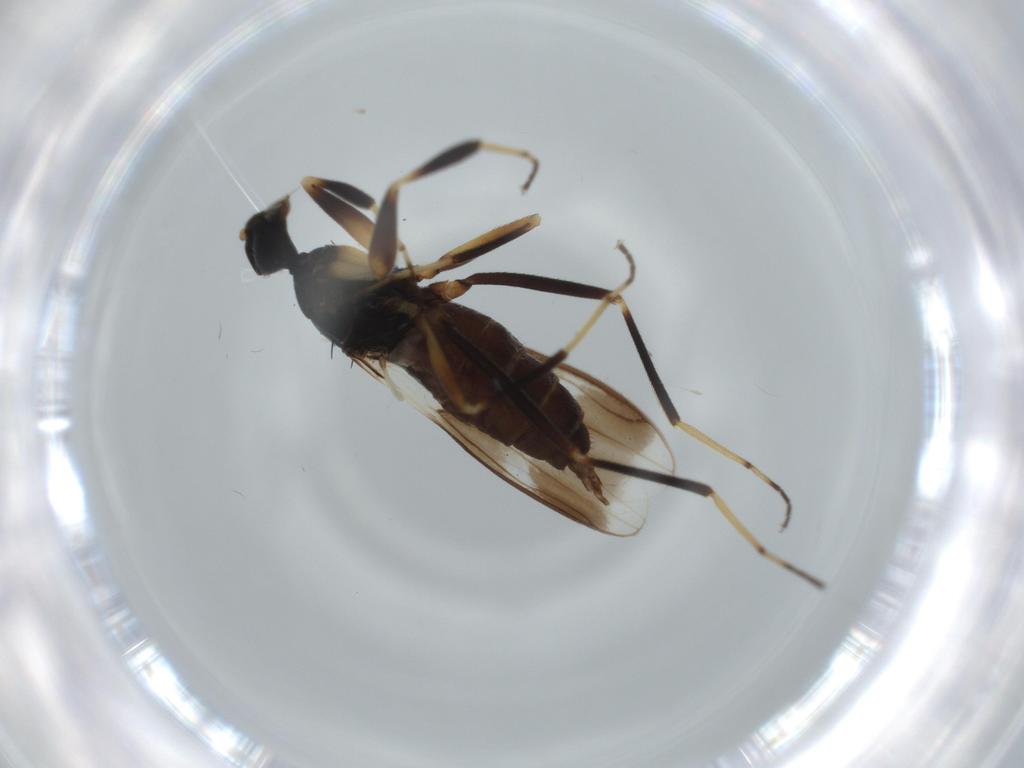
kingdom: Animalia
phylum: Arthropoda
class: Insecta
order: Diptera
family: Hybotidae
